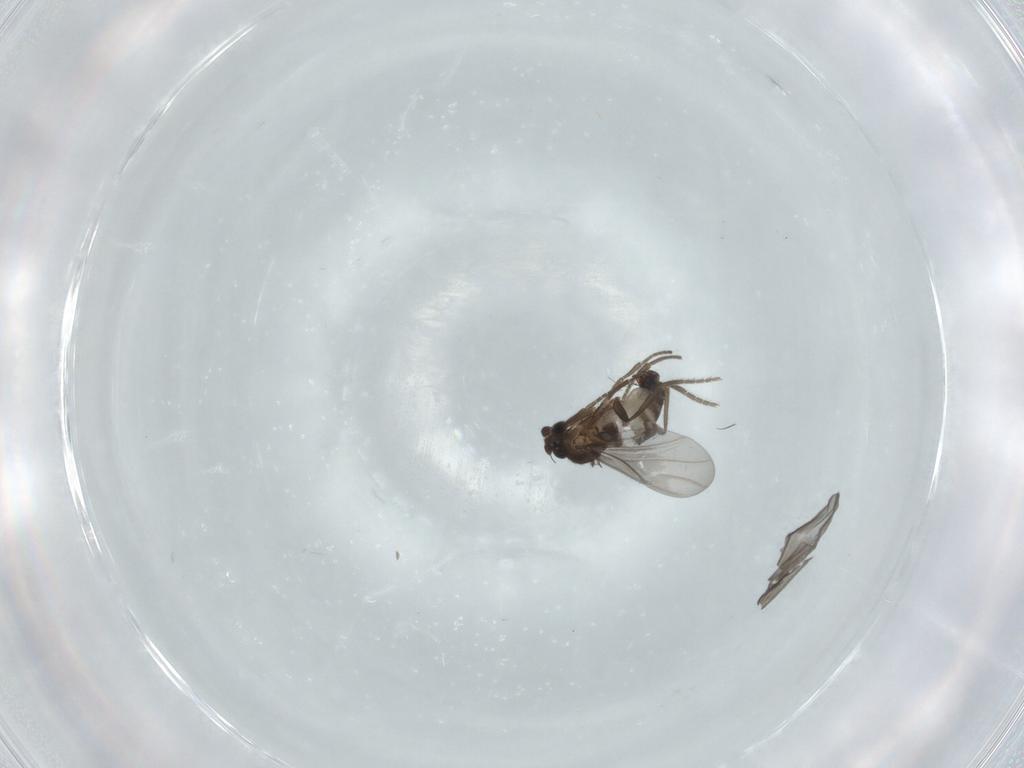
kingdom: Animalia
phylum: Arthropoda
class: Insecta
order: Diptera
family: Phoridae
